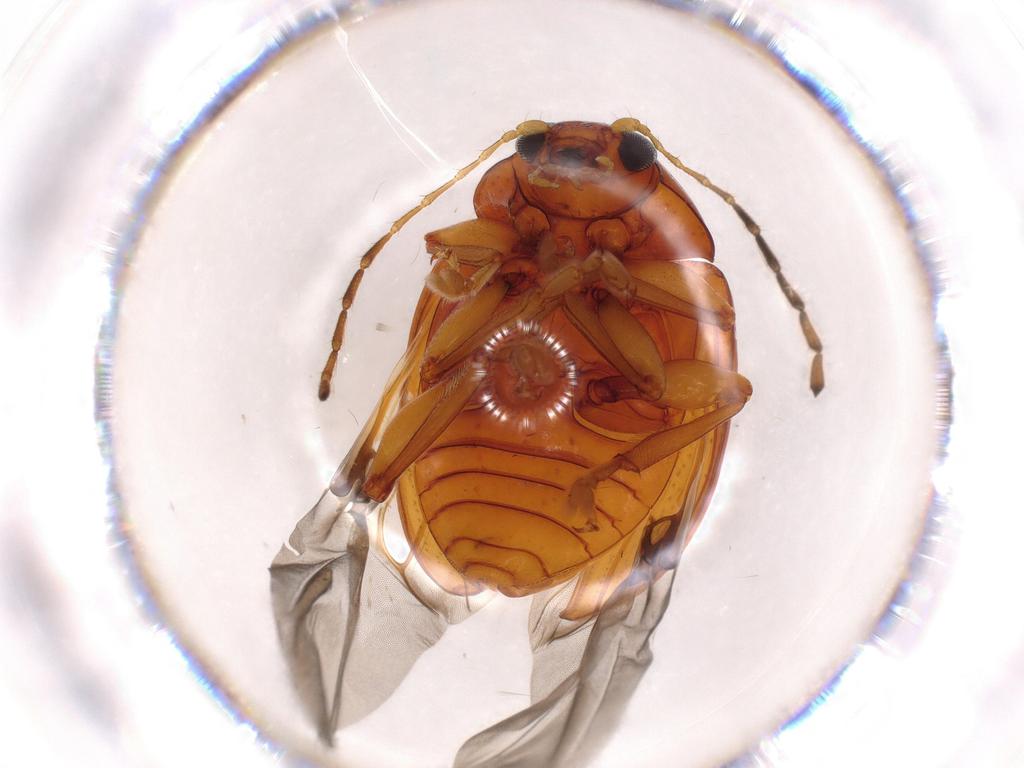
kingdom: Animalia
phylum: Arthropoda
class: Insecta
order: Coleoptera
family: Chrysomelidae
